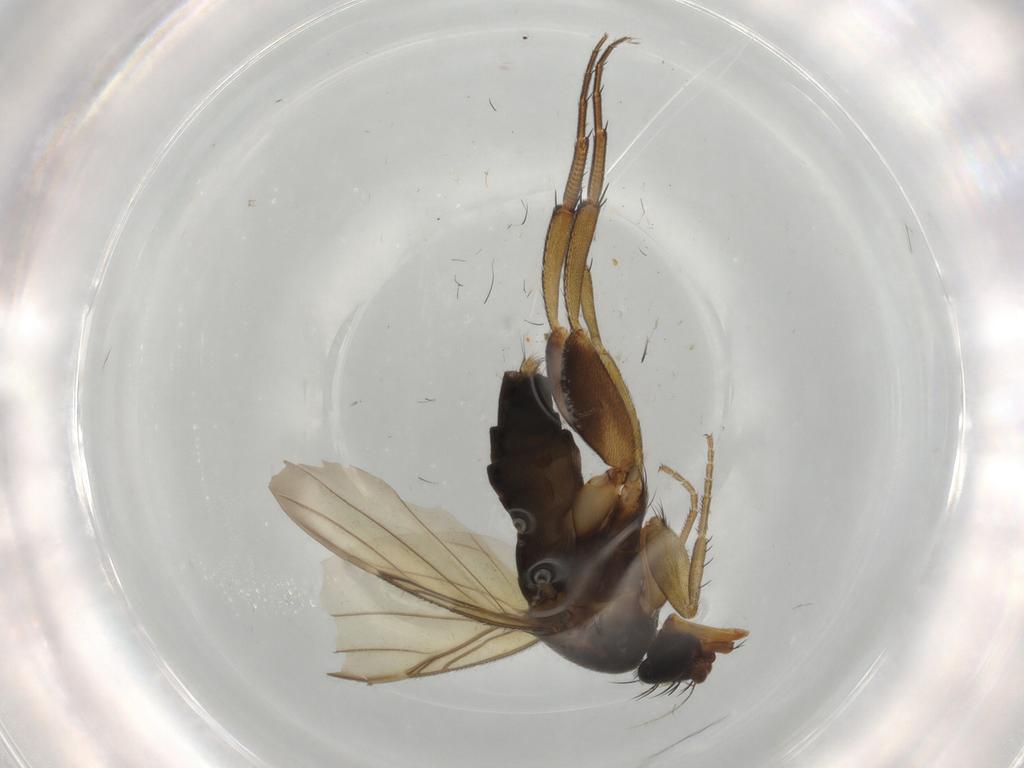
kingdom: Animalia
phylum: Arthropoda
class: Insecta
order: Diptera
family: Phoridae
